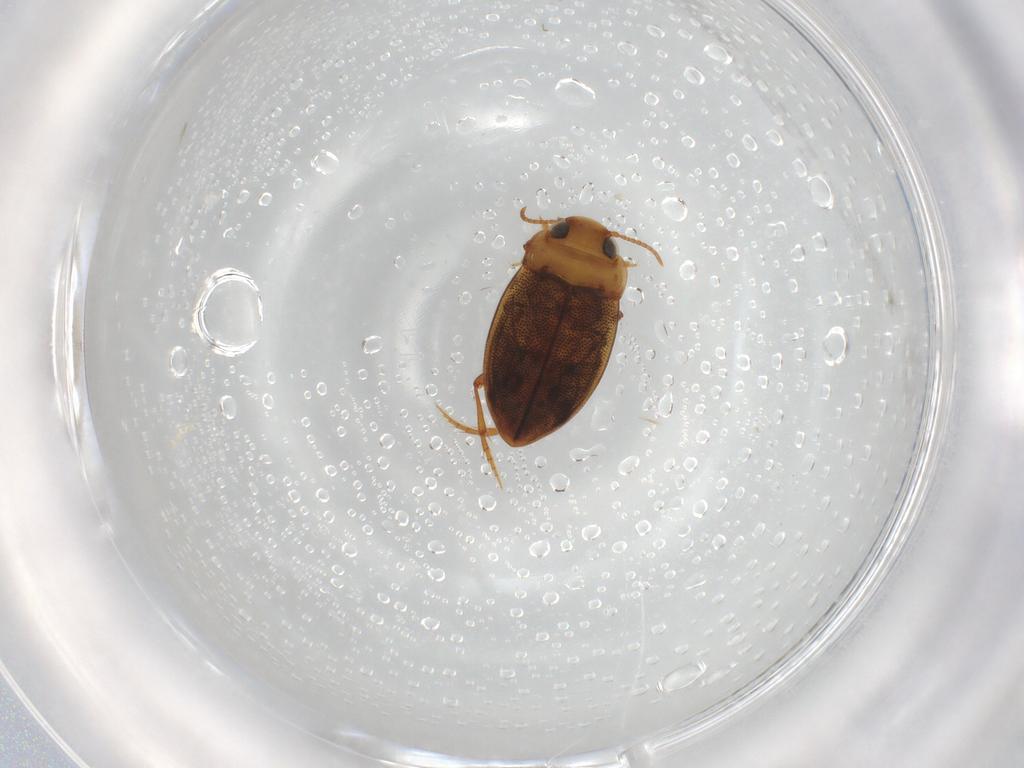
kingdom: Animalia
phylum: Arthropoda
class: Insecta
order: Coleoptera
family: Dytiscidae
